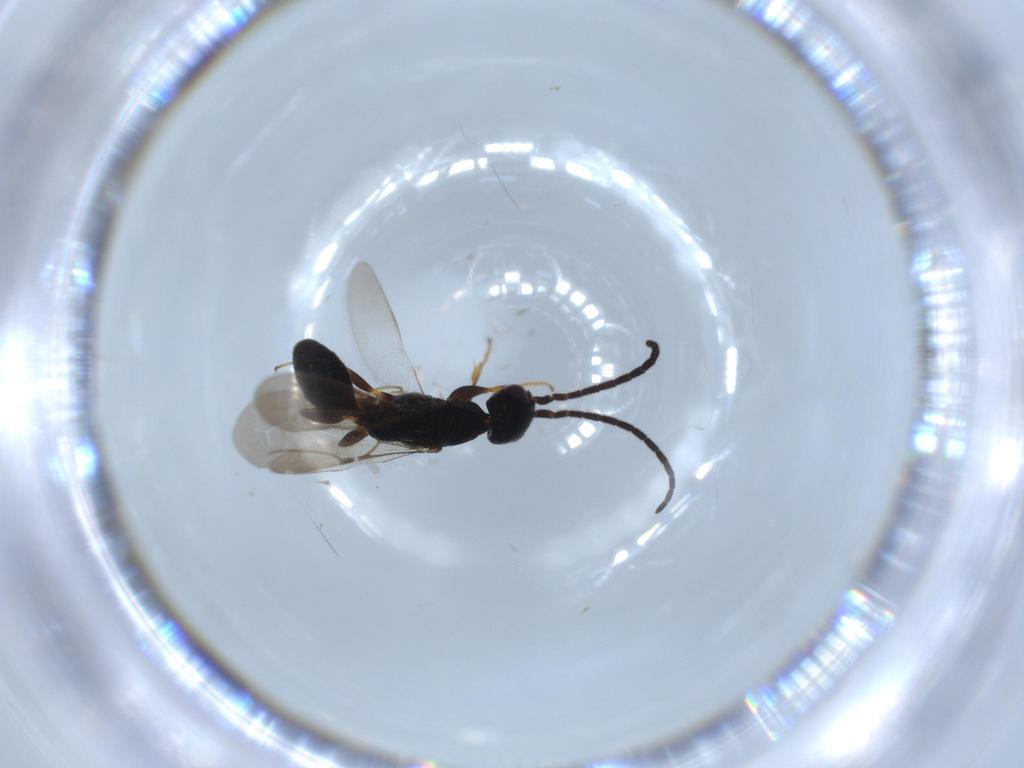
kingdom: Animalia
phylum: Arthropoda
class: Insecta
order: Hymenoptera
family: Bethylidae
